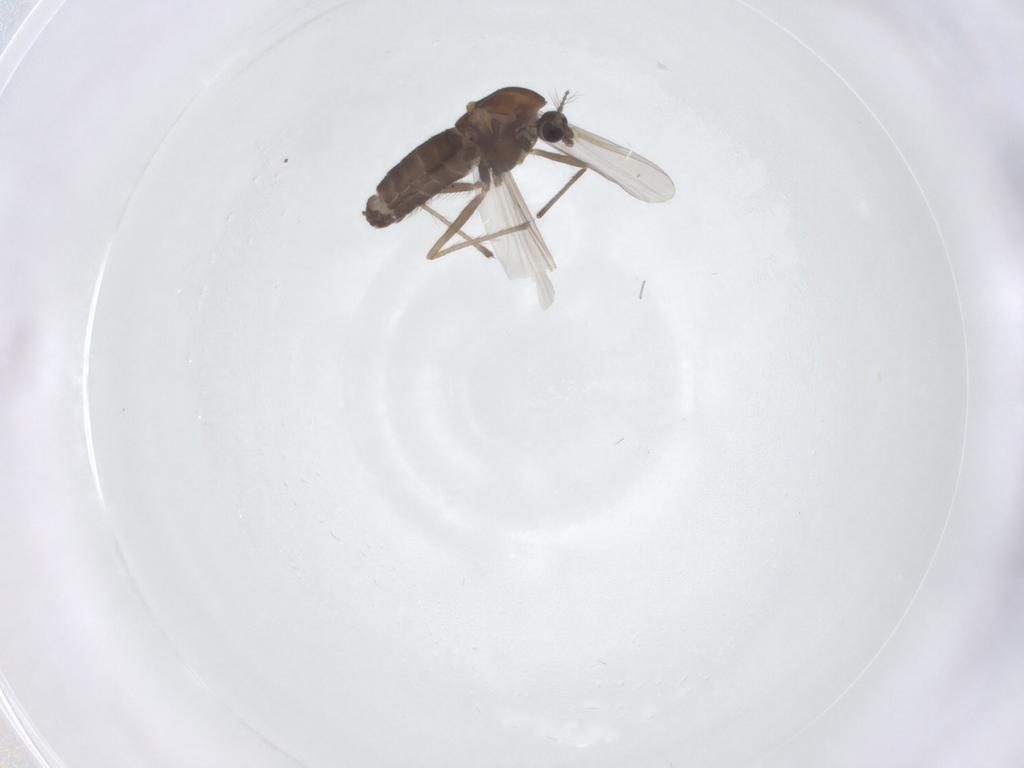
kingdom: Animalia
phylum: Arthropoda
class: Insecta
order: Diptera
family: Chironomidae
